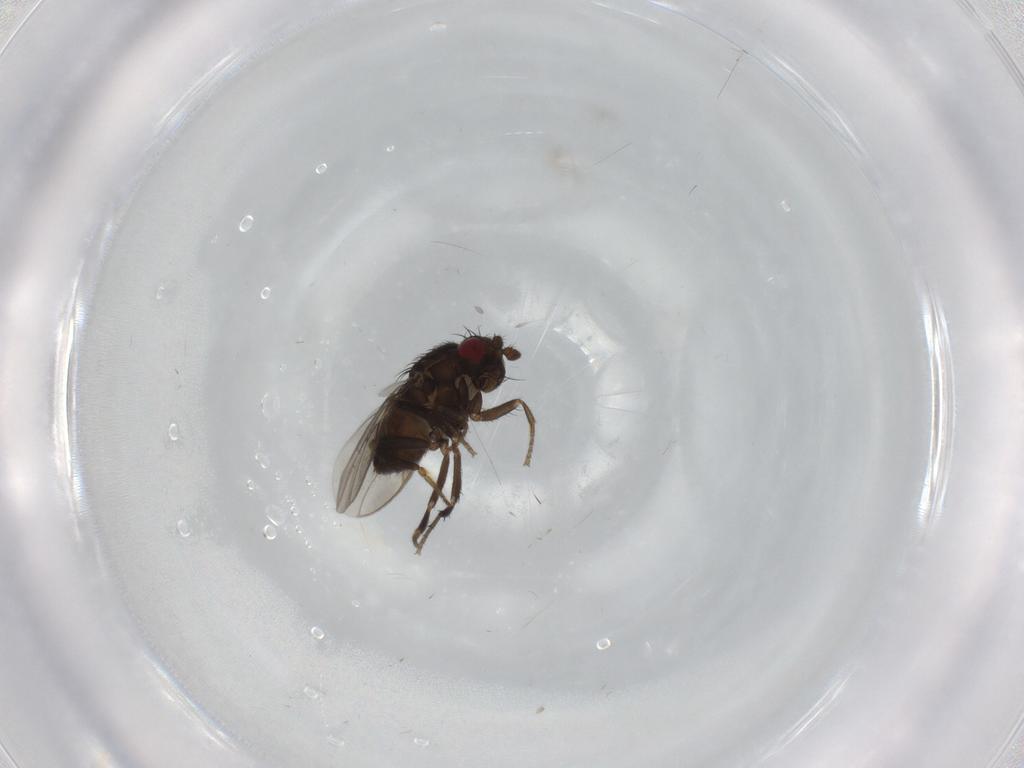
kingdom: Animalia
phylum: Arthropoda
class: Insecta
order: Diptera
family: Sphaeroceridae
